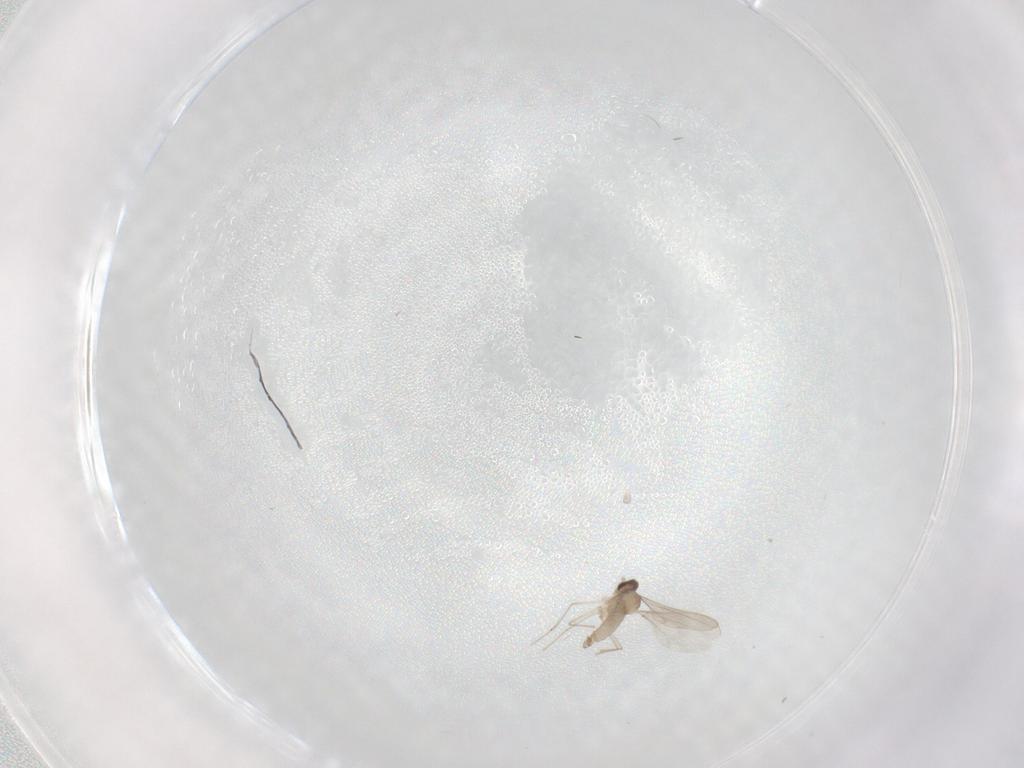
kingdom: Animalia
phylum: Arthropoda
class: Insecta
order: Diptera
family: Cecidomyiidae
